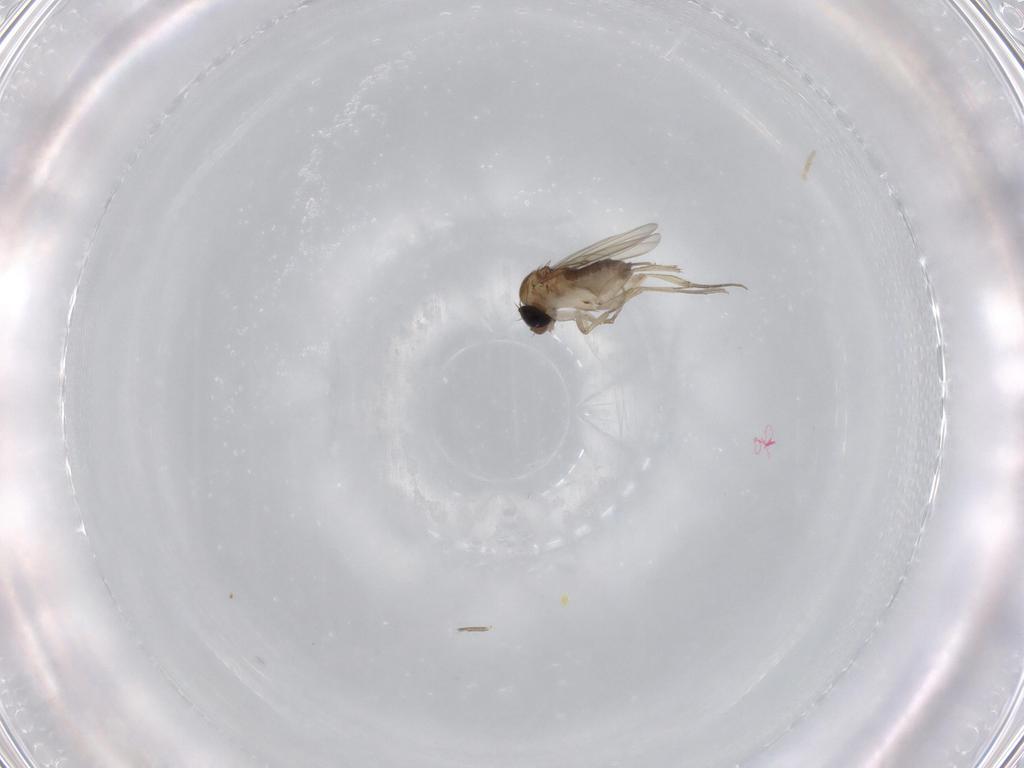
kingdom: Animalia
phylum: Arthropoda
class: Insecta
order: Diptera
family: Phoridae
